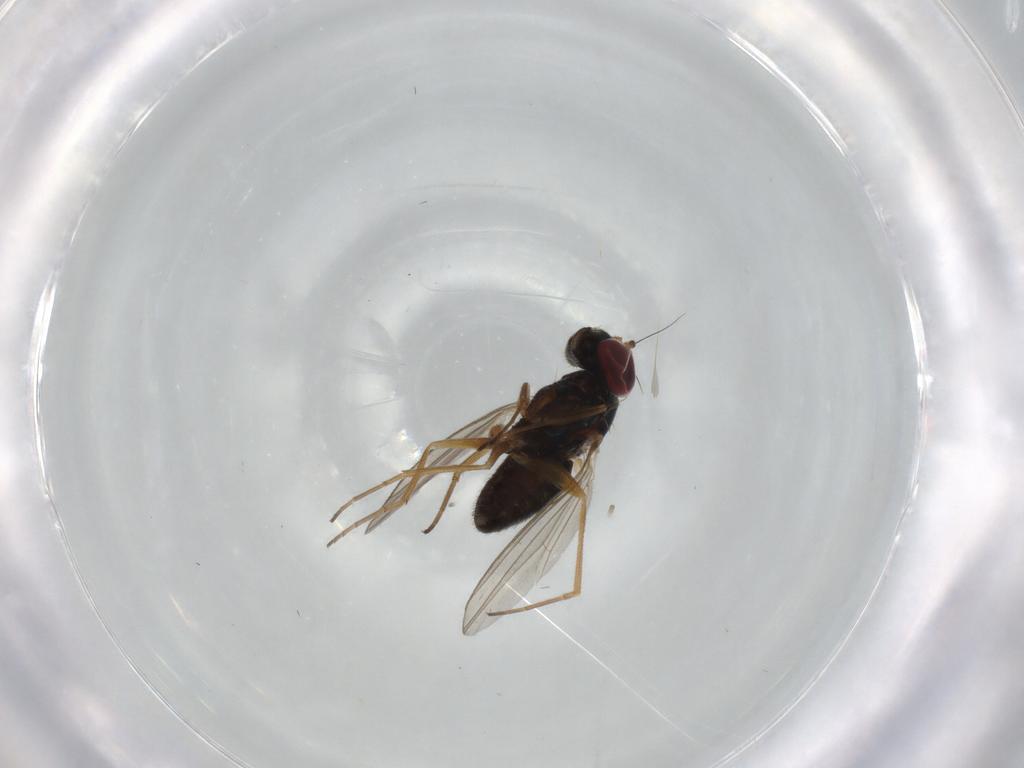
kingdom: Animalia
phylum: Arthropoda
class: Insecta
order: Diptera
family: Dolichopodidae
